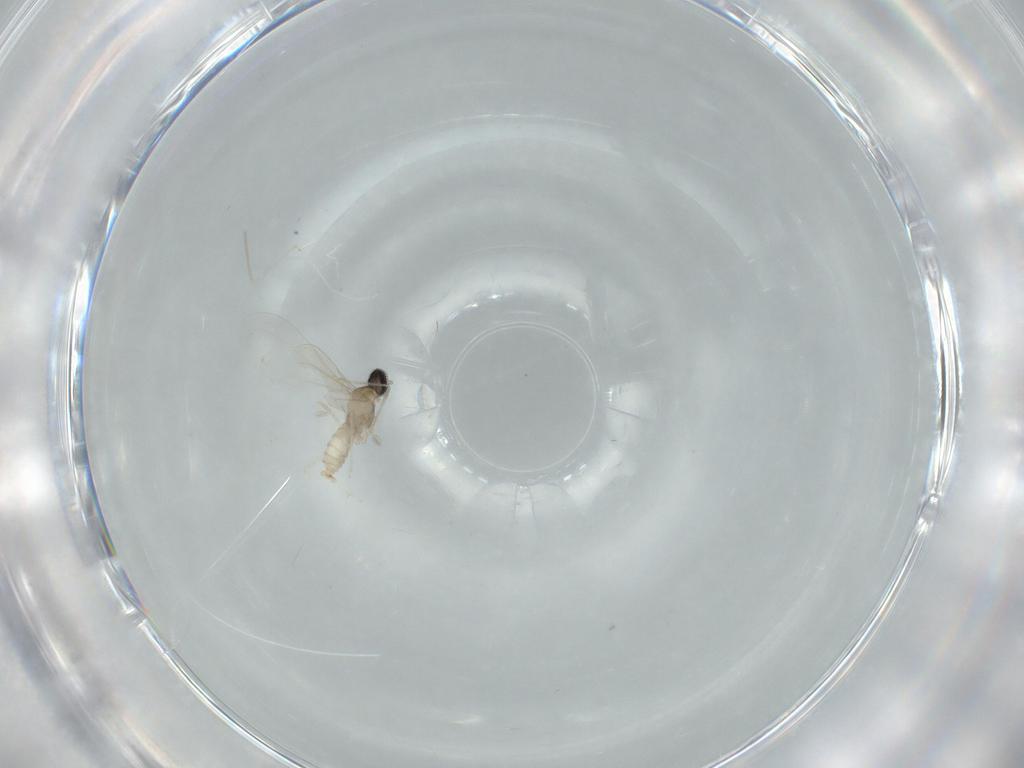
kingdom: Animalia
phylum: Arthropoda
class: Insecta
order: Diptera
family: Cecidomyiidae
